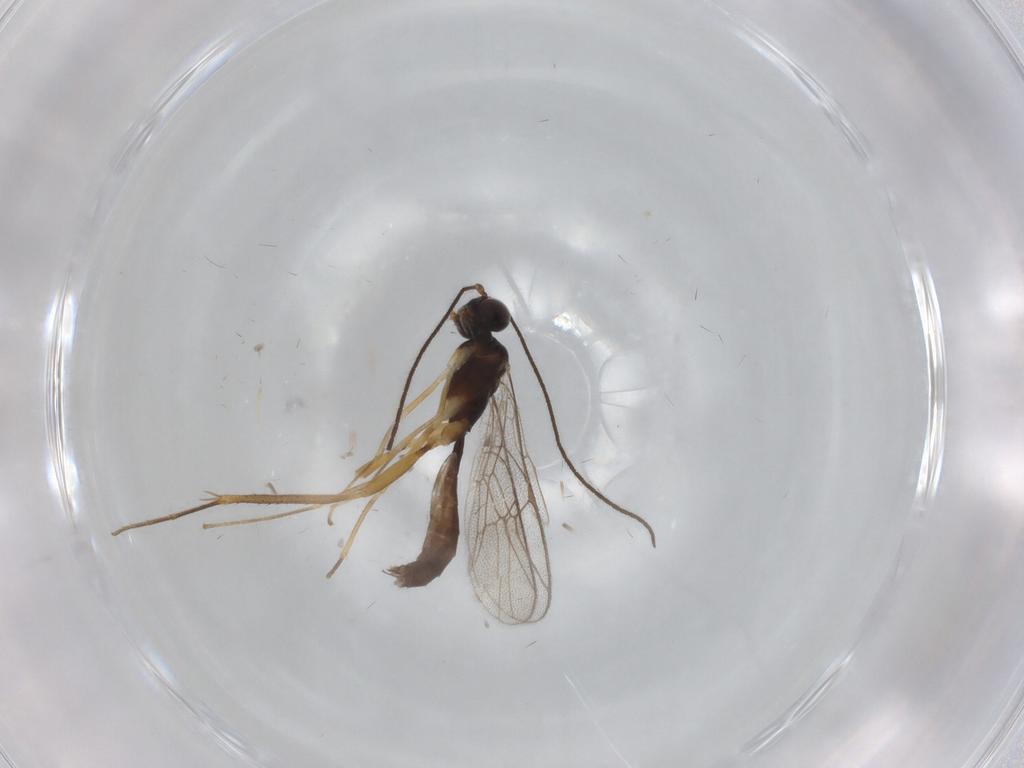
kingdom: Animalia
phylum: Arthropoda
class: Insecta
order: Hymenoptera
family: Ichneumonidae
